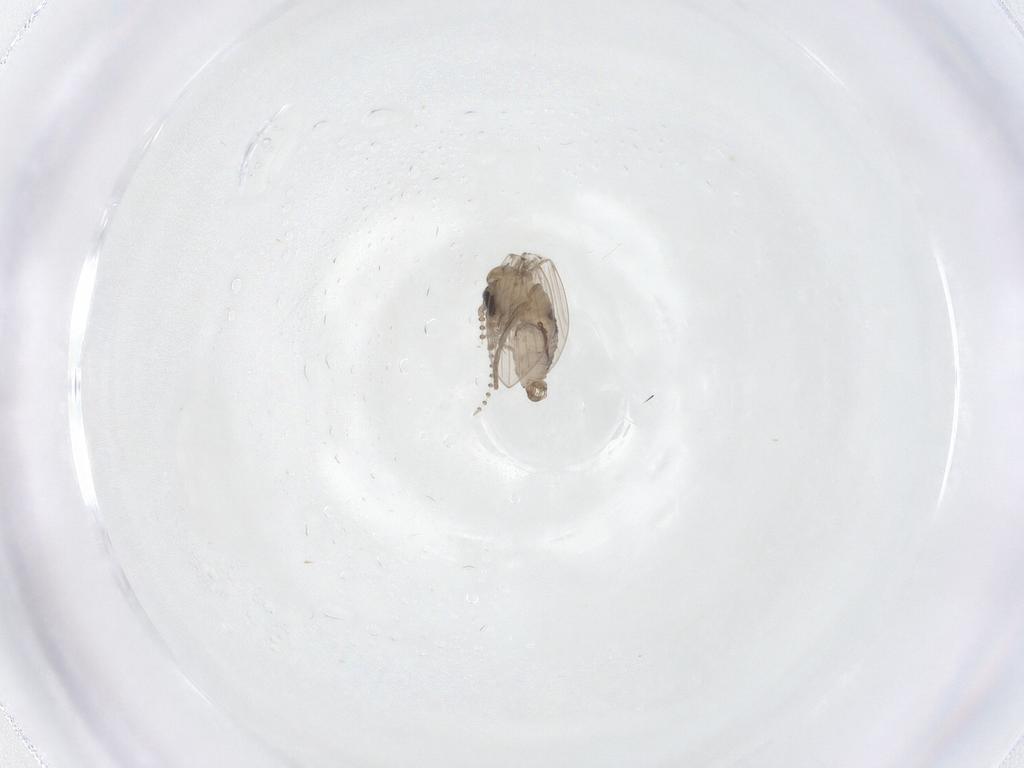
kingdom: Animalia
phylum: Arthropoda
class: Insecta
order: Diptera
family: Psychodidae
